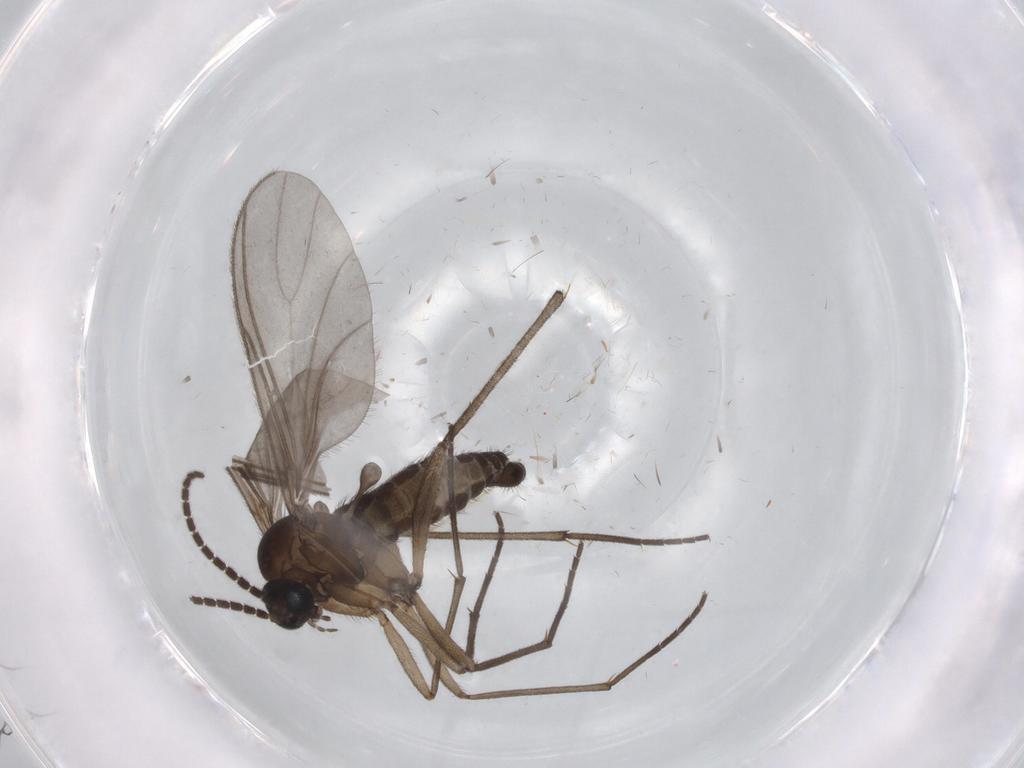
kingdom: Animalia
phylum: Arthropoda
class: Insecta
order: Diptera
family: Sciaridae
